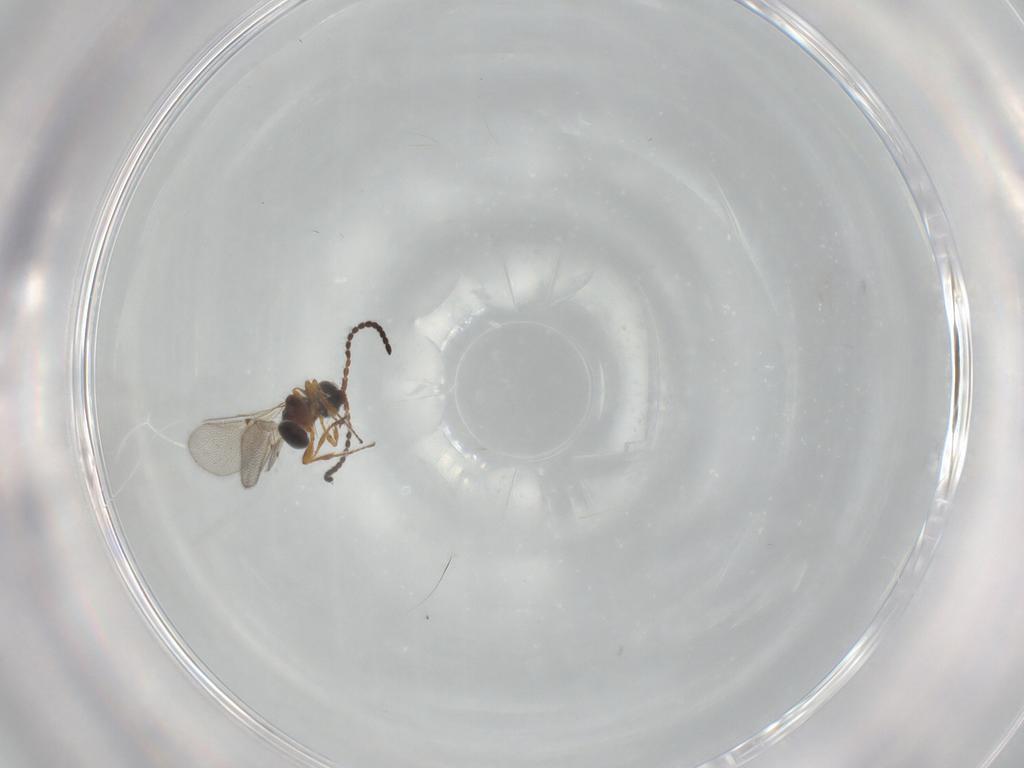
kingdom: Animalia
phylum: Arthropoda
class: Insecta
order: Hymenoptera
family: Diapriidae
